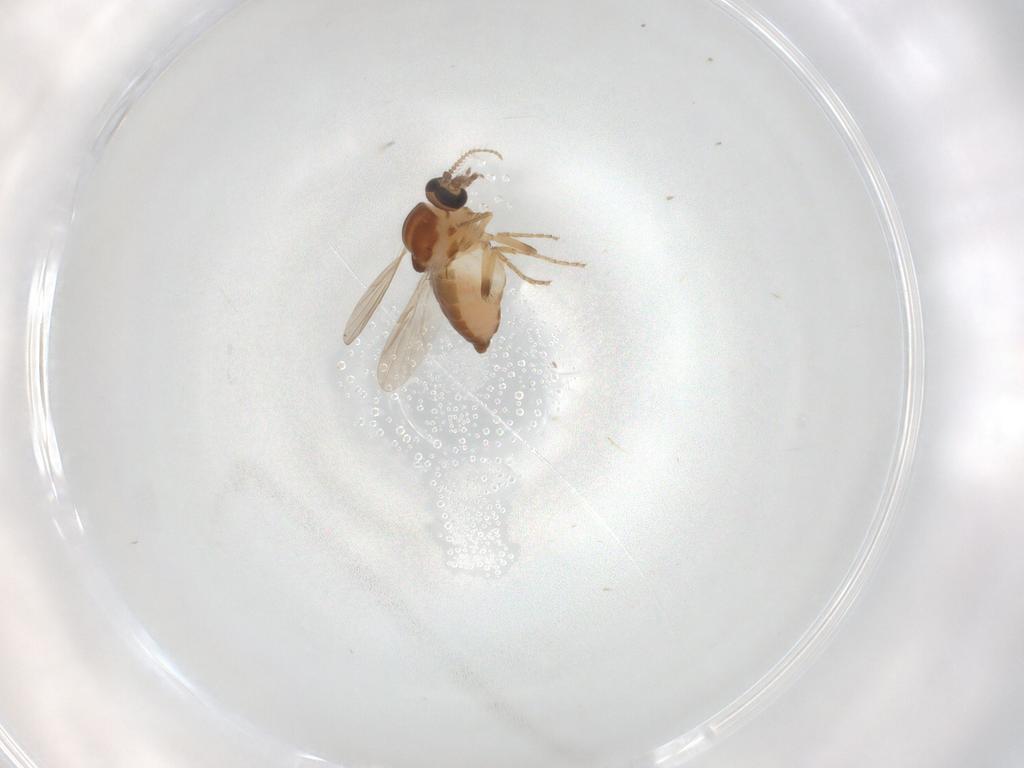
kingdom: Animalia
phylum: Arthropoda
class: Insecta
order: Diptera
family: Ceratopogonidae
